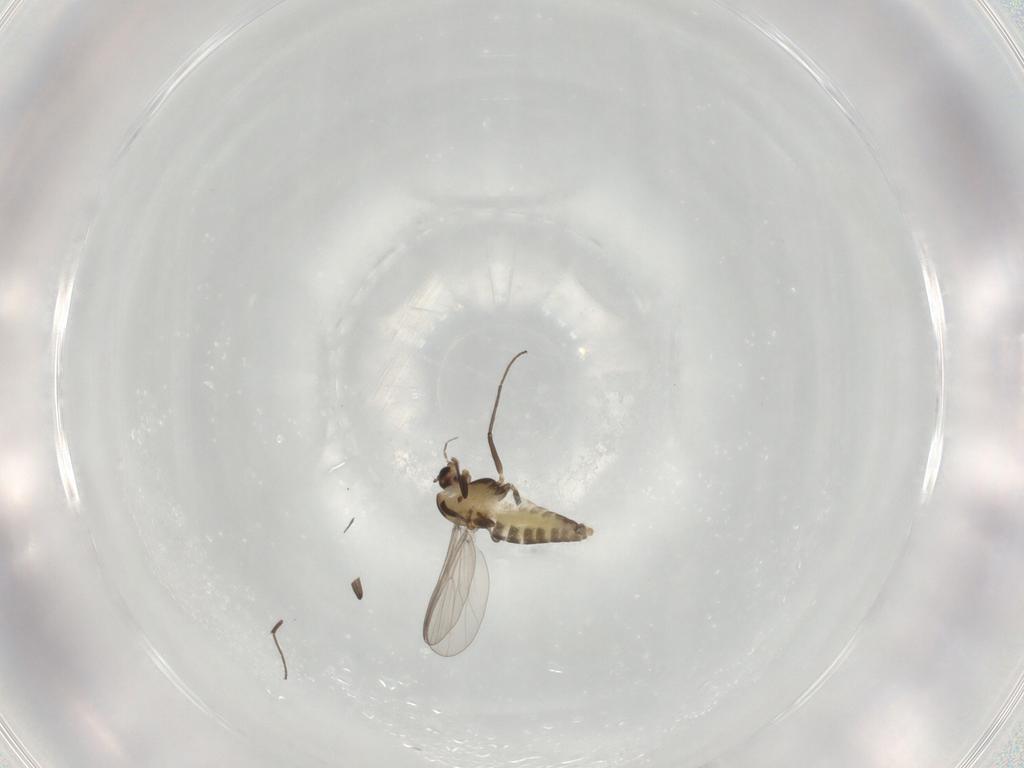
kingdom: Animalia
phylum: Arthropoda
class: Insecta
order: Diptera
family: Chironomidae
